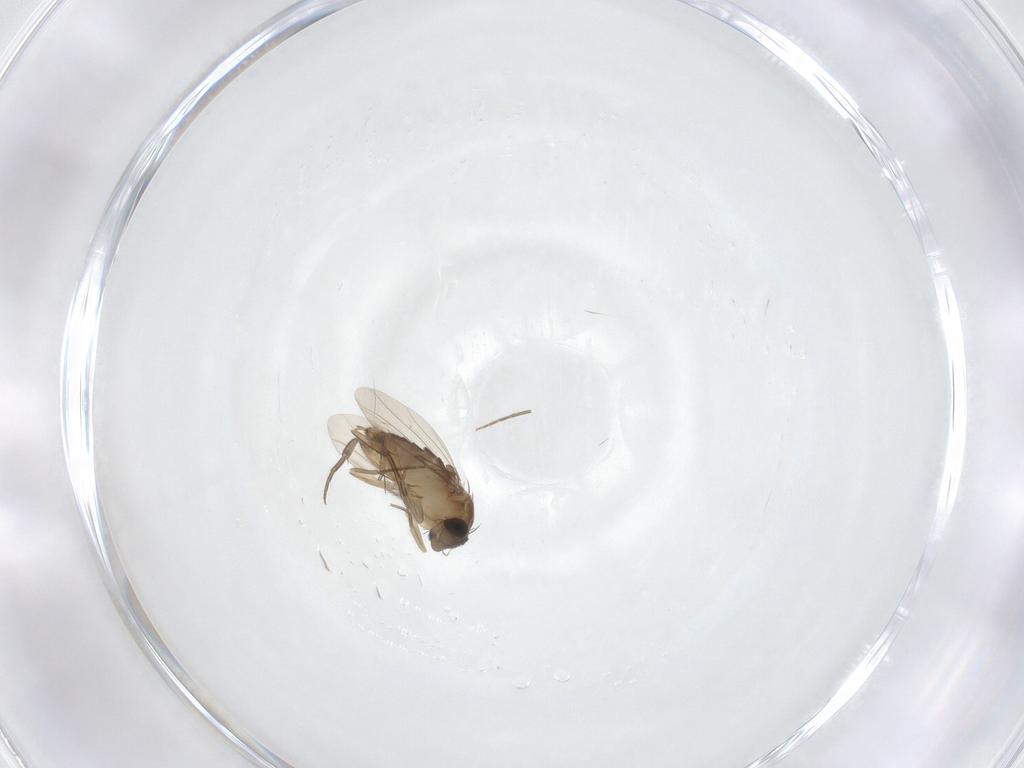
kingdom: Animalia
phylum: Arthropoda
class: Insecta
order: Diptera
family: Phoridae
